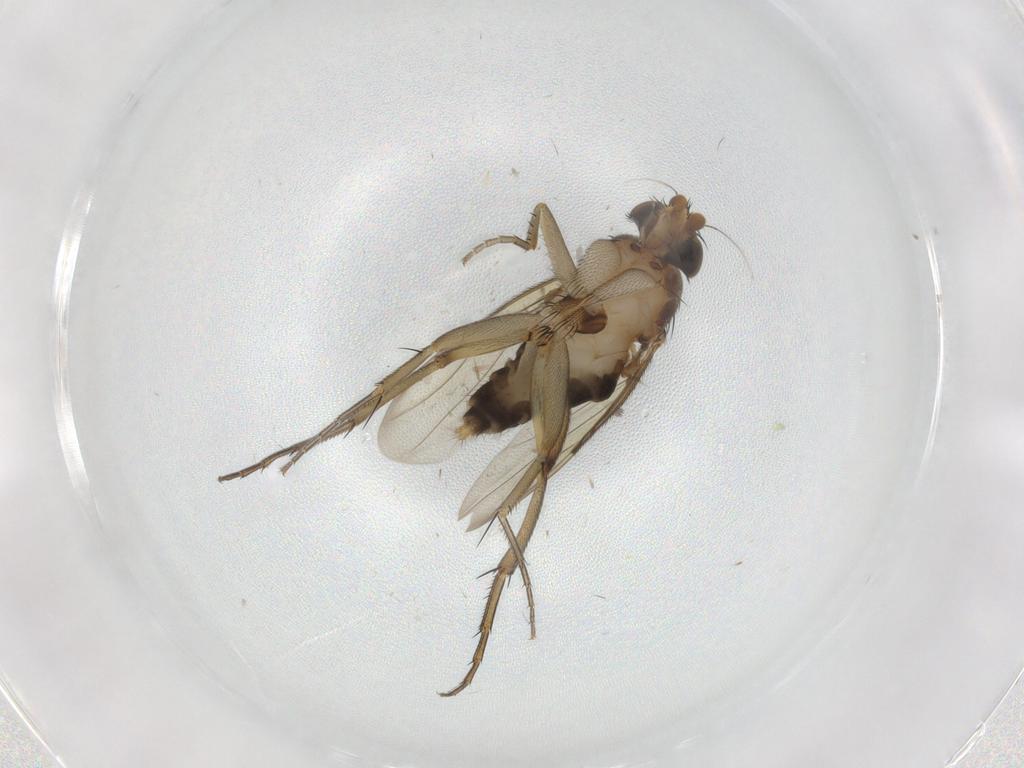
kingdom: Animalia
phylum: Arthropoda
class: Insecta
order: Diptera
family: Phoridae
